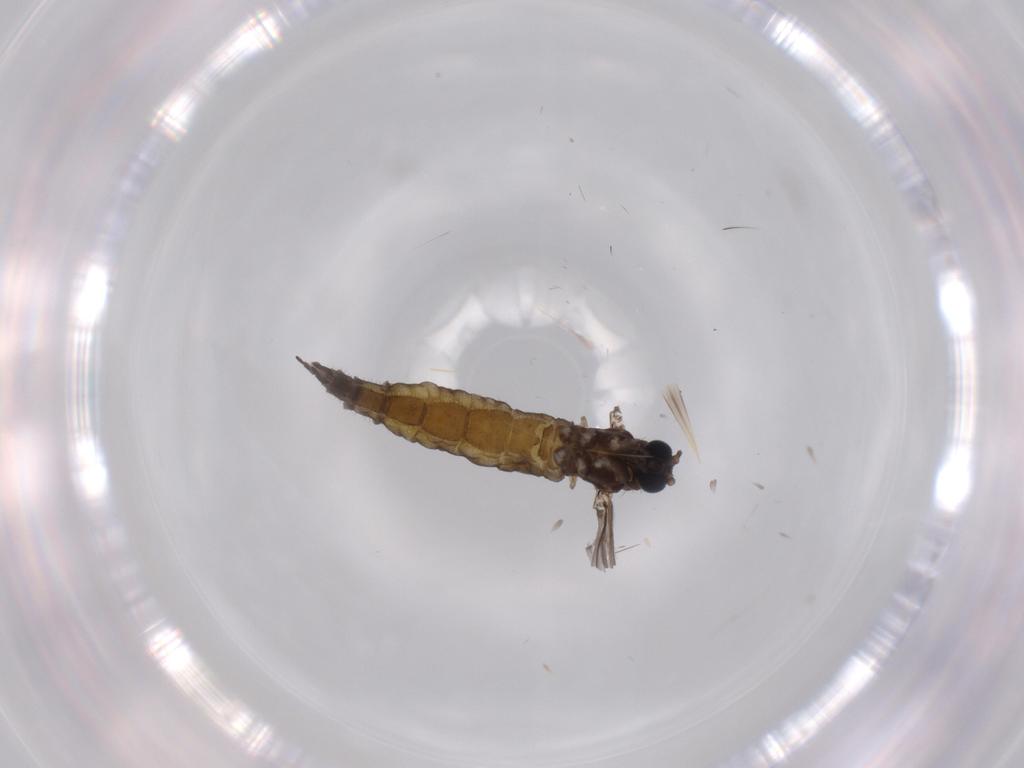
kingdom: Animalia
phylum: Arthropoda
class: Insecta
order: Diptera
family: Sciaridae
